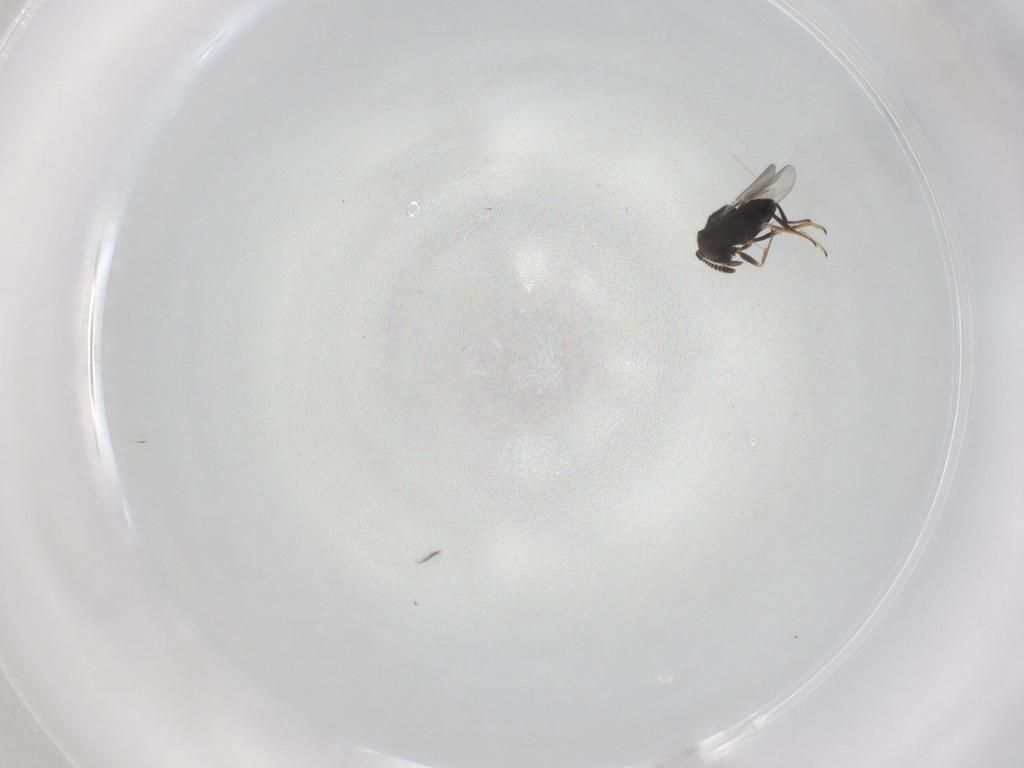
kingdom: Animalia
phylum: Arthropoda
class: Insecta
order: Hymenoptera
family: Encyrtidae
